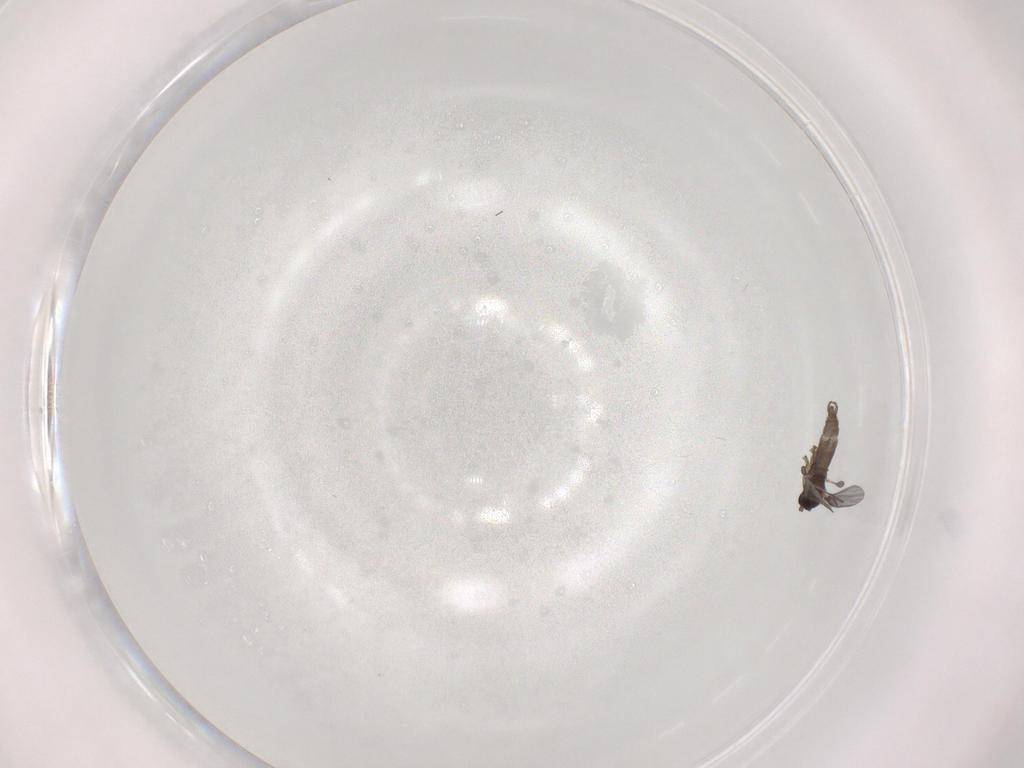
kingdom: Animalia
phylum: Arthropoda
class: Insecta
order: Diptera
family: Sciaridae
